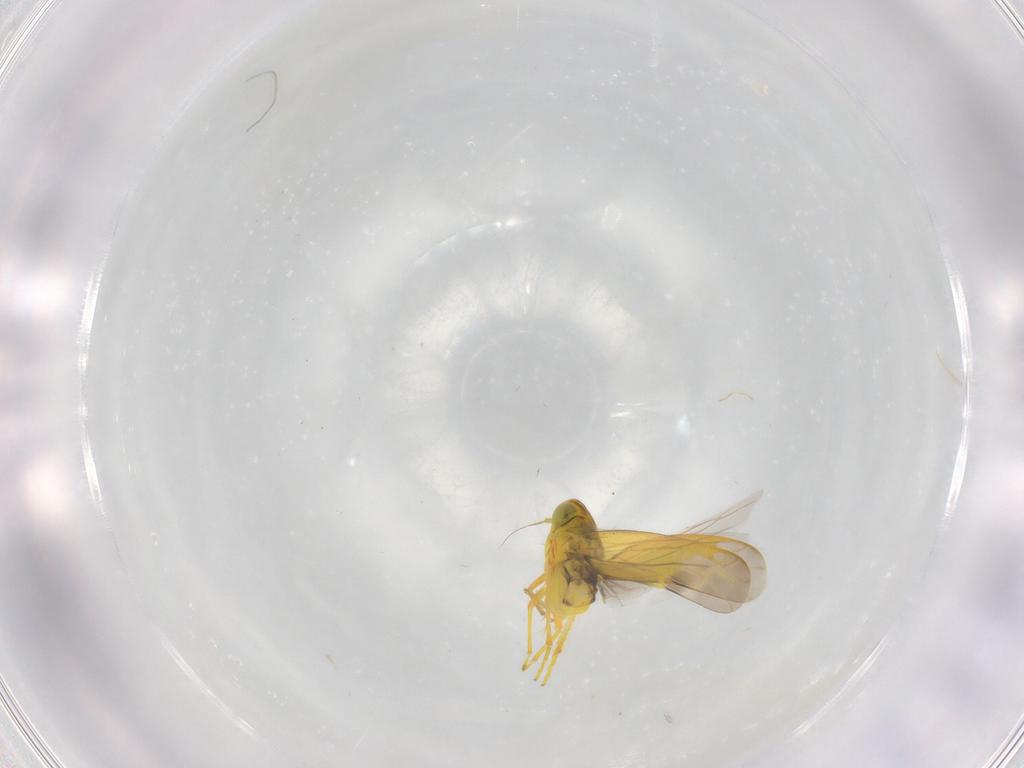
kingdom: Animalia
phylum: Arthropoda
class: Insecta
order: Hemiptera
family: Cicadellidae
